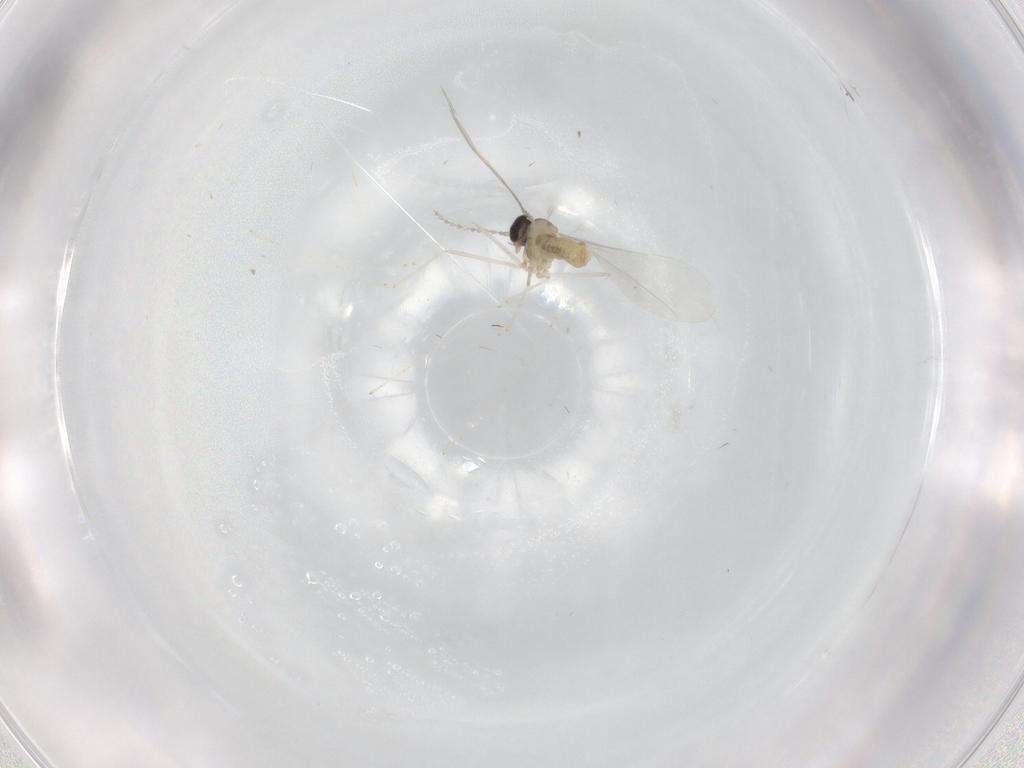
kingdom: Animalia
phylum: Arthropoda
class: Insecta
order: Diptera
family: Cecidomyiidae
